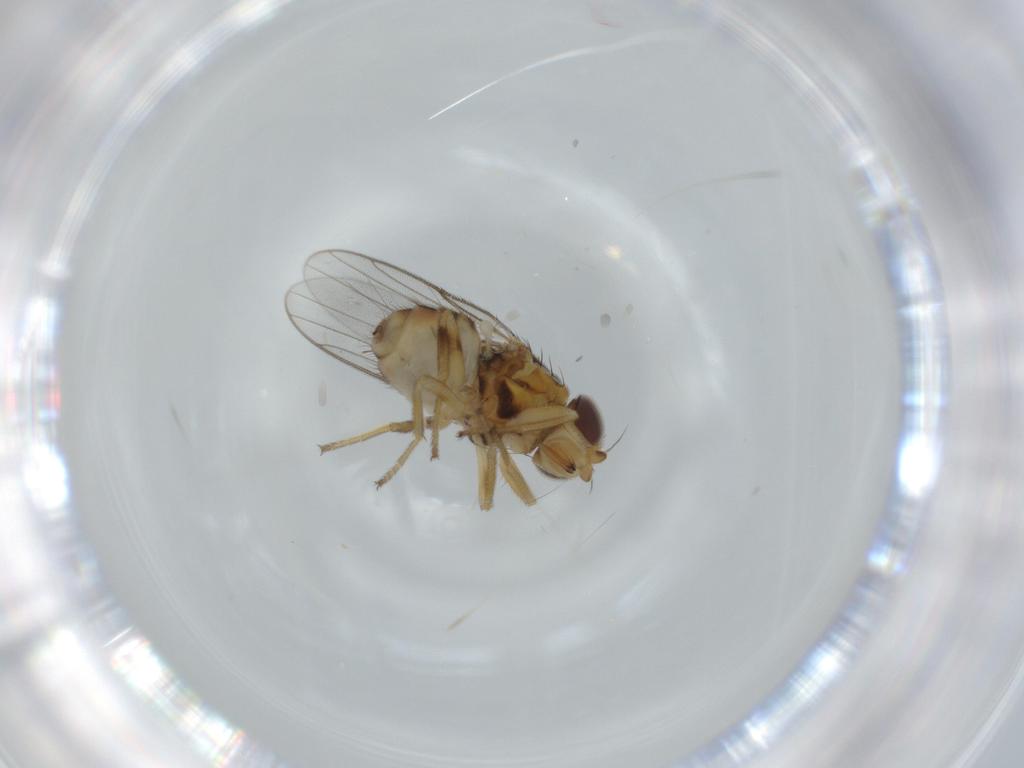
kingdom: Animalia
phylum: Arthropoda
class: Insecta
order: Diptera
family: Chloropidae
